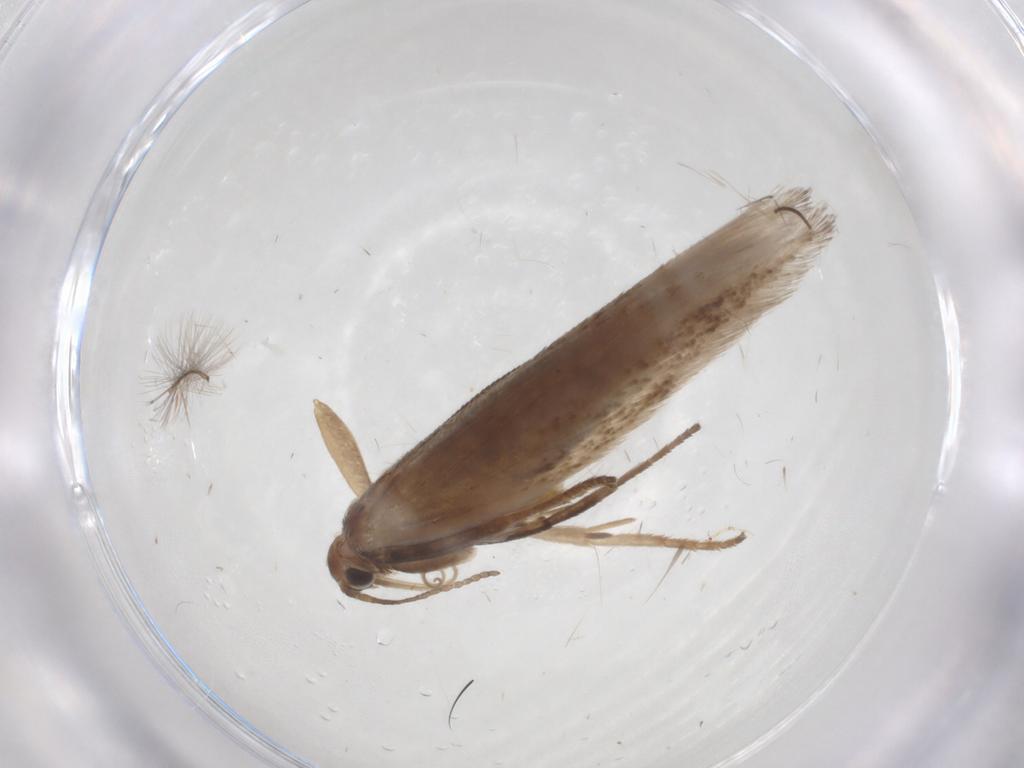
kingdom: Animalia
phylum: Arthropoda
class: Insecta
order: Lepidoptera
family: Gelechiidae
